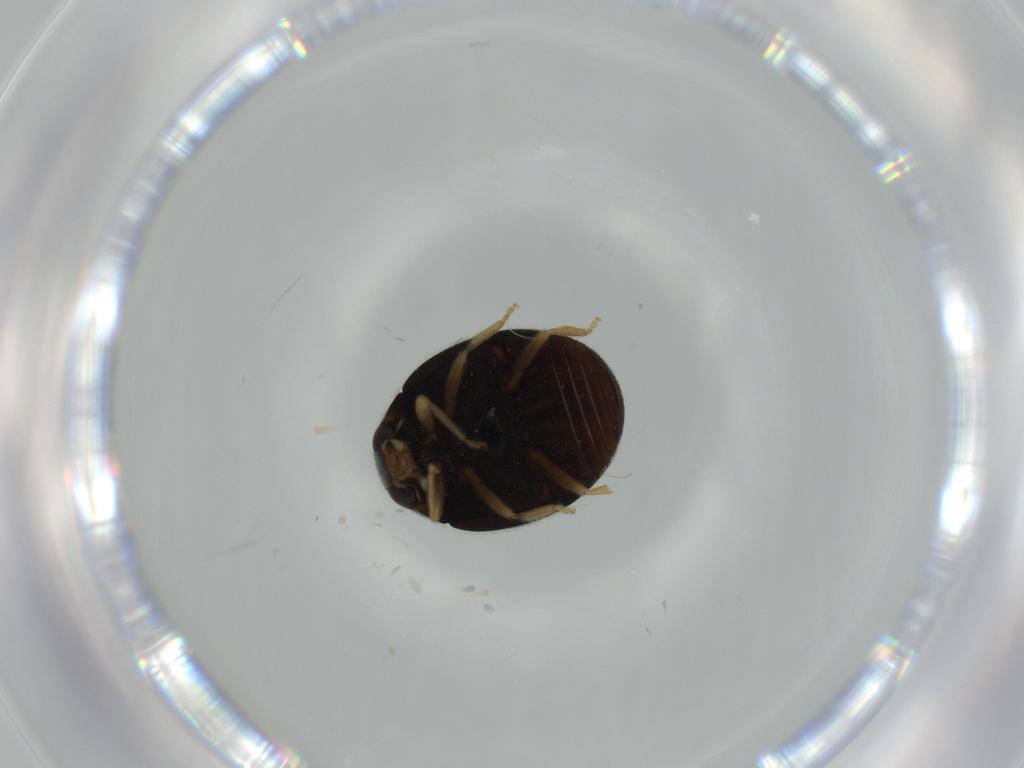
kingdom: Animalia
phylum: Arthropoda
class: Insecta
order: Coleoptera
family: Coccinellidae
